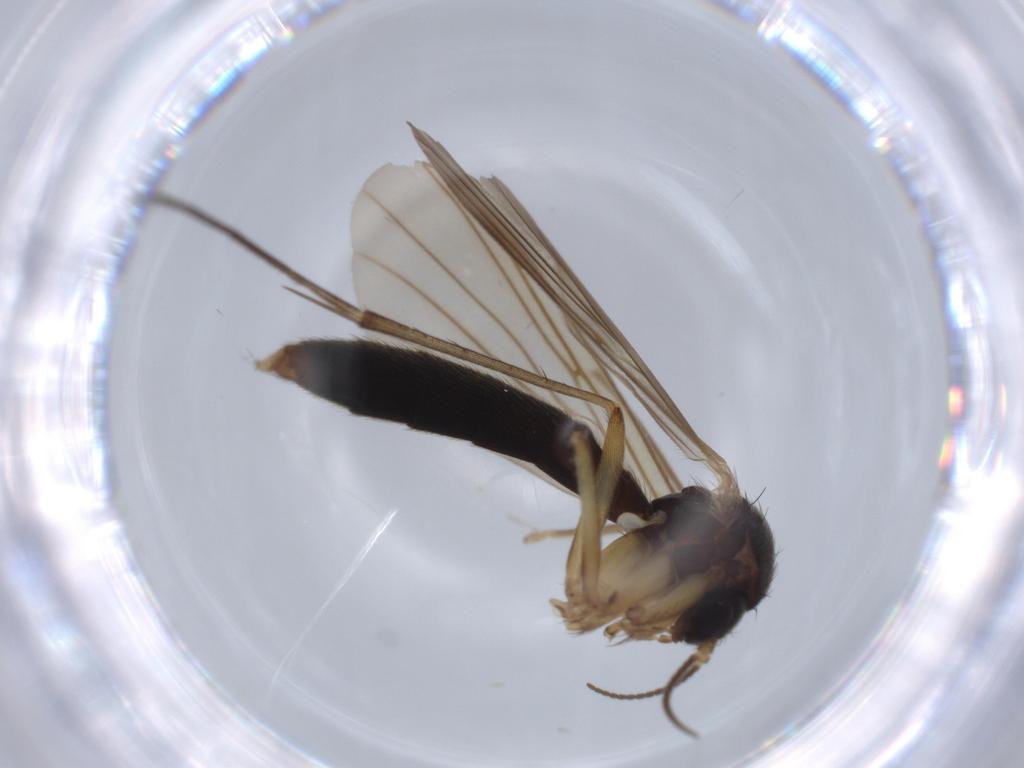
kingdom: Animalia
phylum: Arthropoda
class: Insecta
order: Diptera
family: Mycetophilidae
